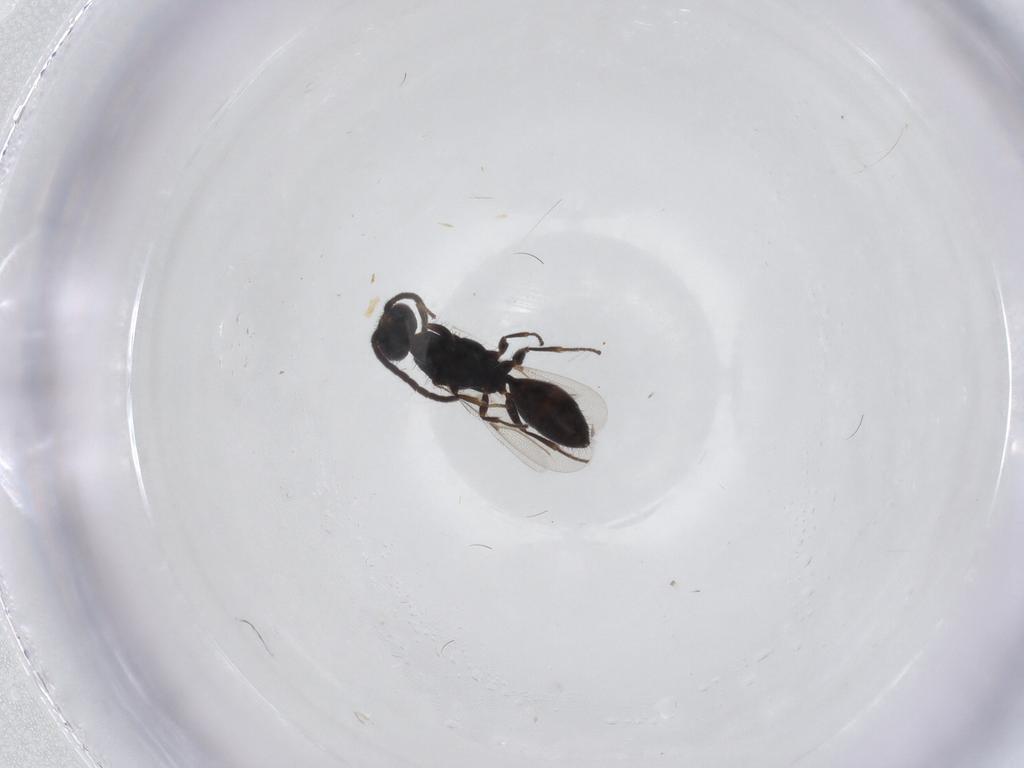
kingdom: Animalia
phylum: Arthropoda
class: Insecta
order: Hymenoptera
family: Bethylidae
